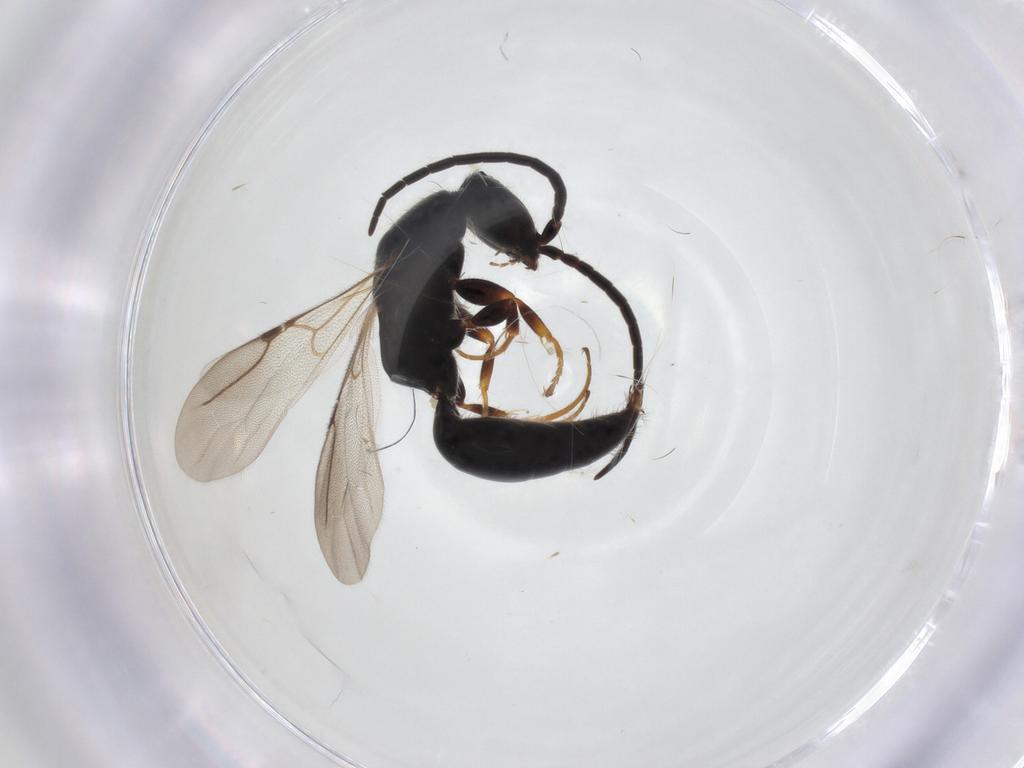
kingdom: Animalia
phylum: Arthropoda
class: Insecta
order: Hymenoptera
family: Bethylidae
